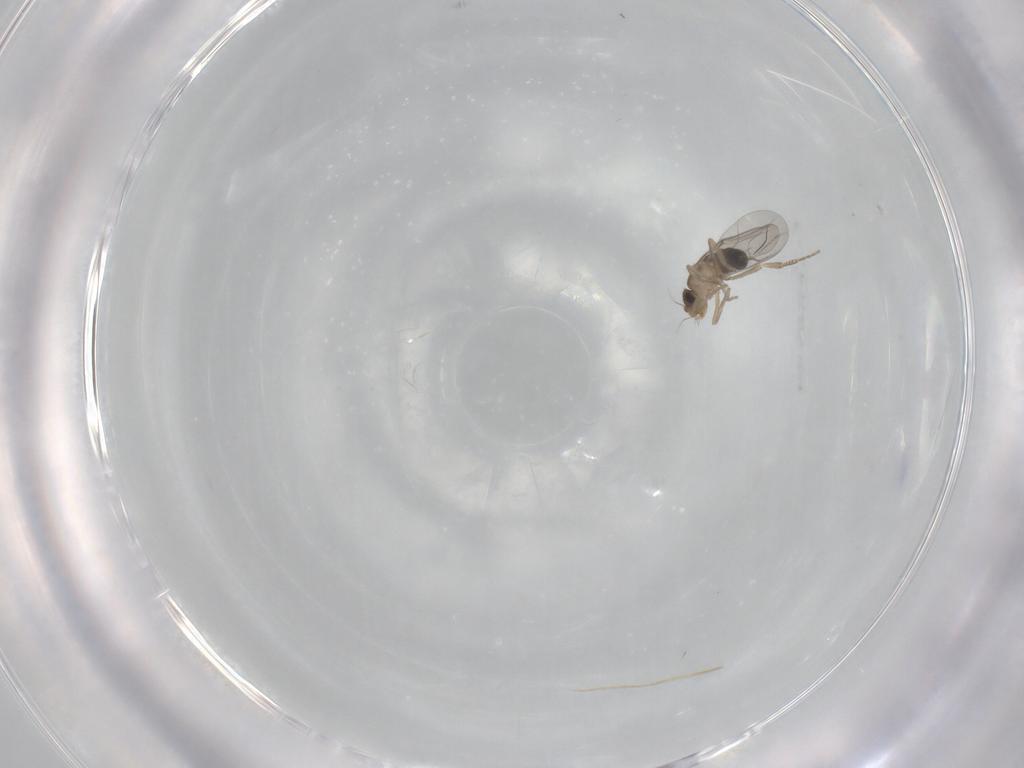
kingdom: Animalia
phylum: Arthropoda
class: Insecta
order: Diptera
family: Phoridae
